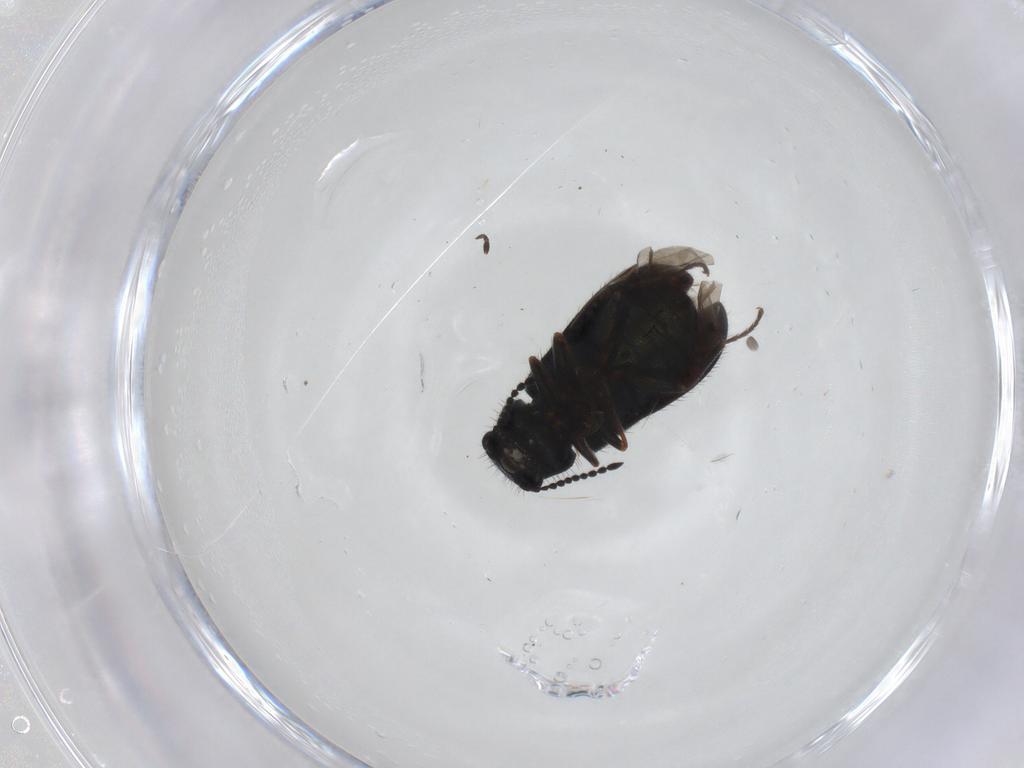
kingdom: Animalia
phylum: Arthropoda
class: Insecta
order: Coleoptera
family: Melyridae
